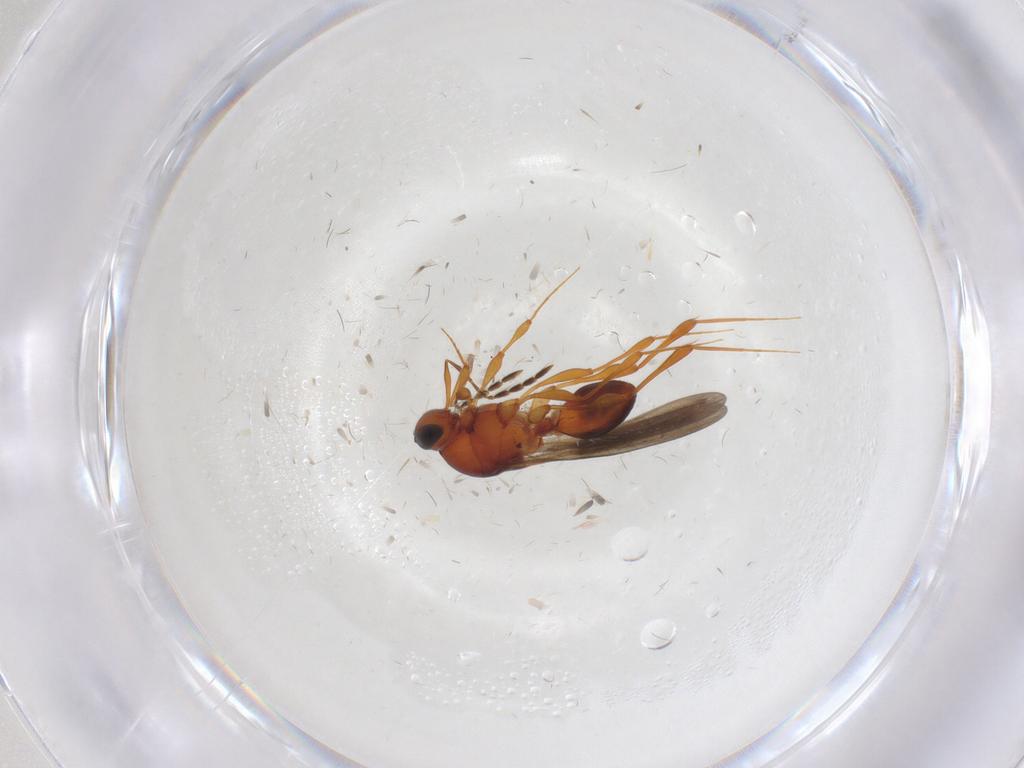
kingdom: Animalia
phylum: Arthropoda
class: Insecta
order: Hymenoptera
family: Platygastridae
